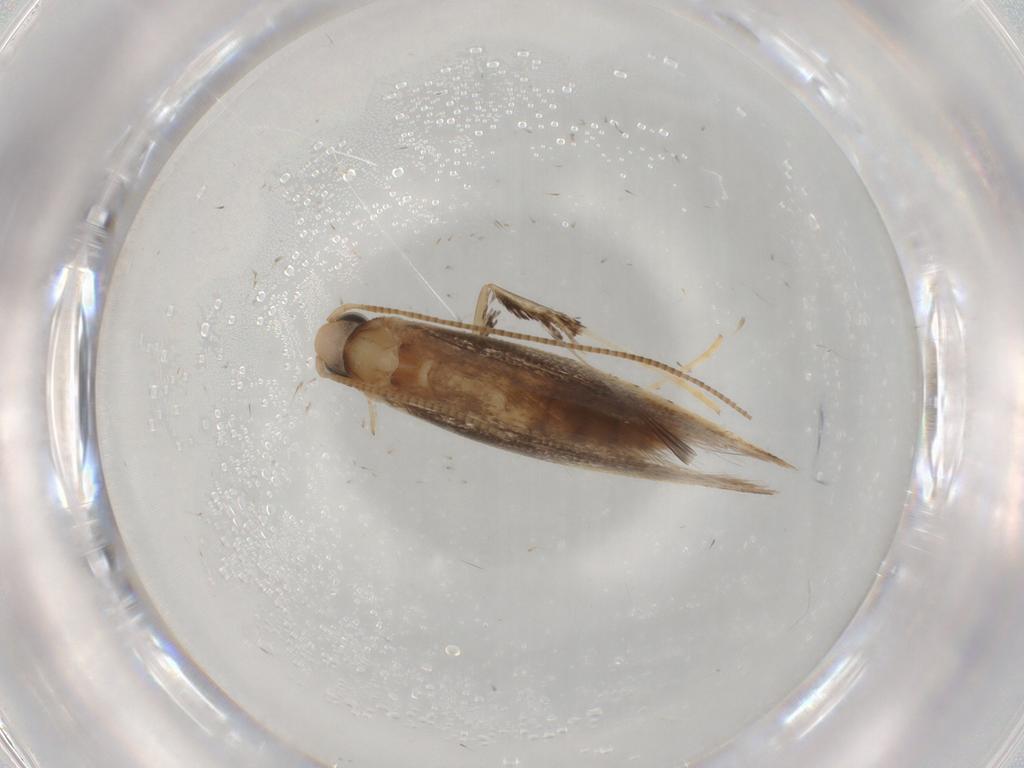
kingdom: Animalia
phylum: Arthropoda
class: Insecta
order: Lepidoptera
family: Gracillariidae
